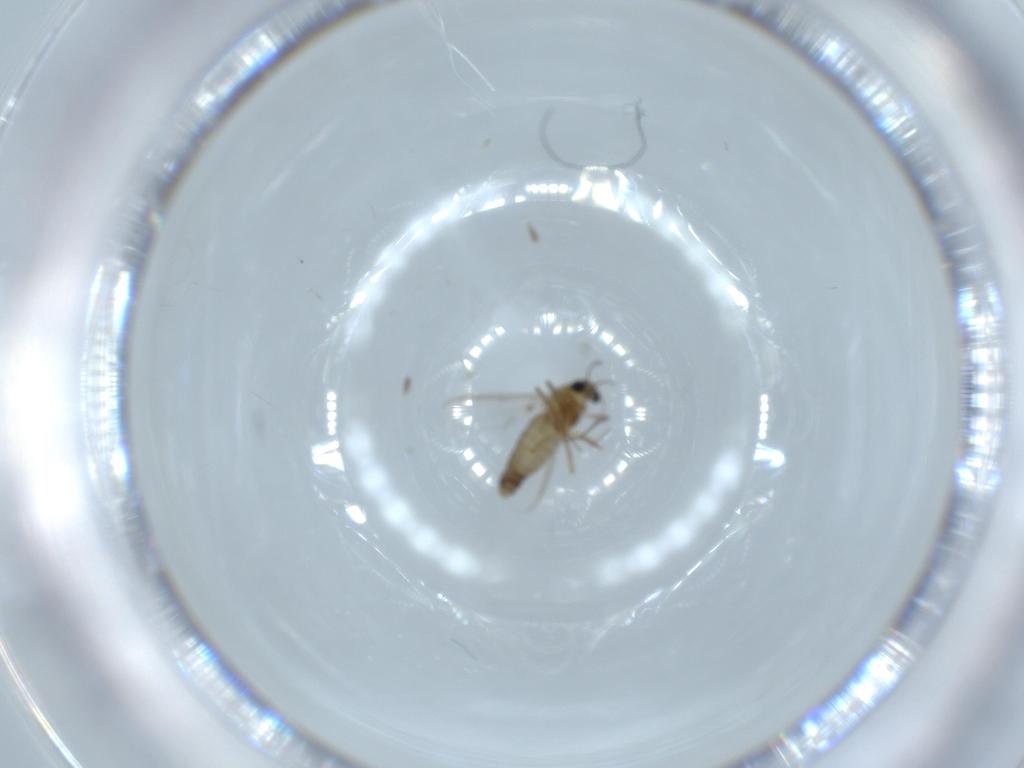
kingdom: Animalia
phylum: Arthropoda
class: Insecta
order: Diptera
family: Chironomidae
